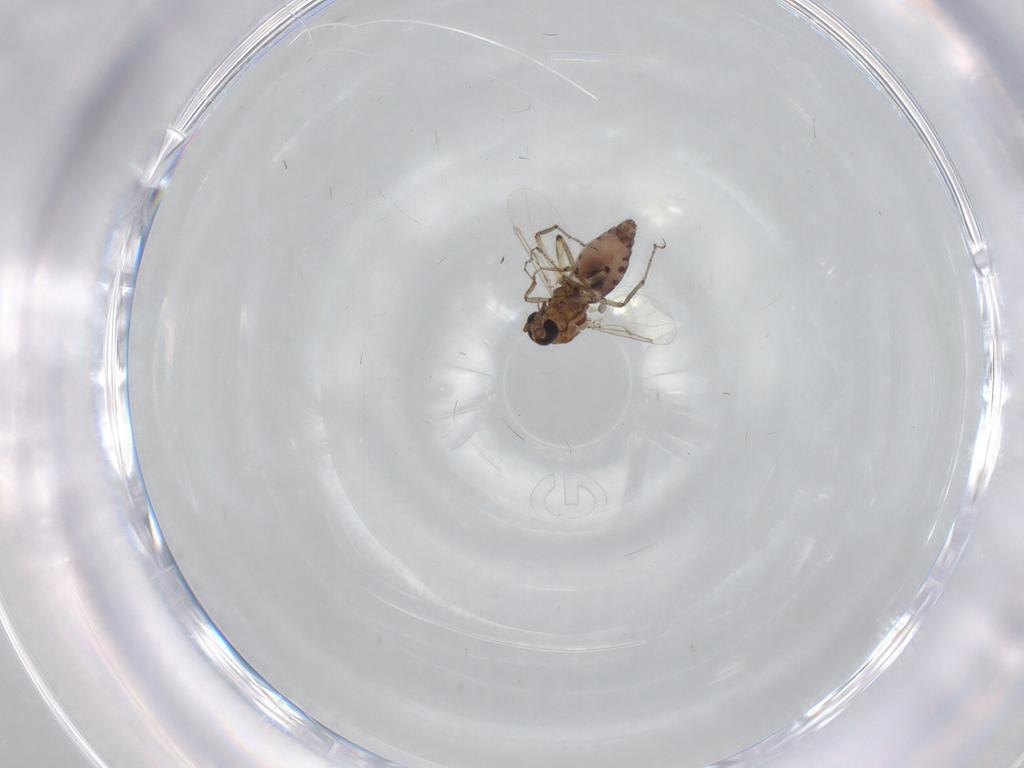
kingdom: Animalia
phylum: Arthropoda
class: Insecta
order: Diptera
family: Ceratopogonidae
